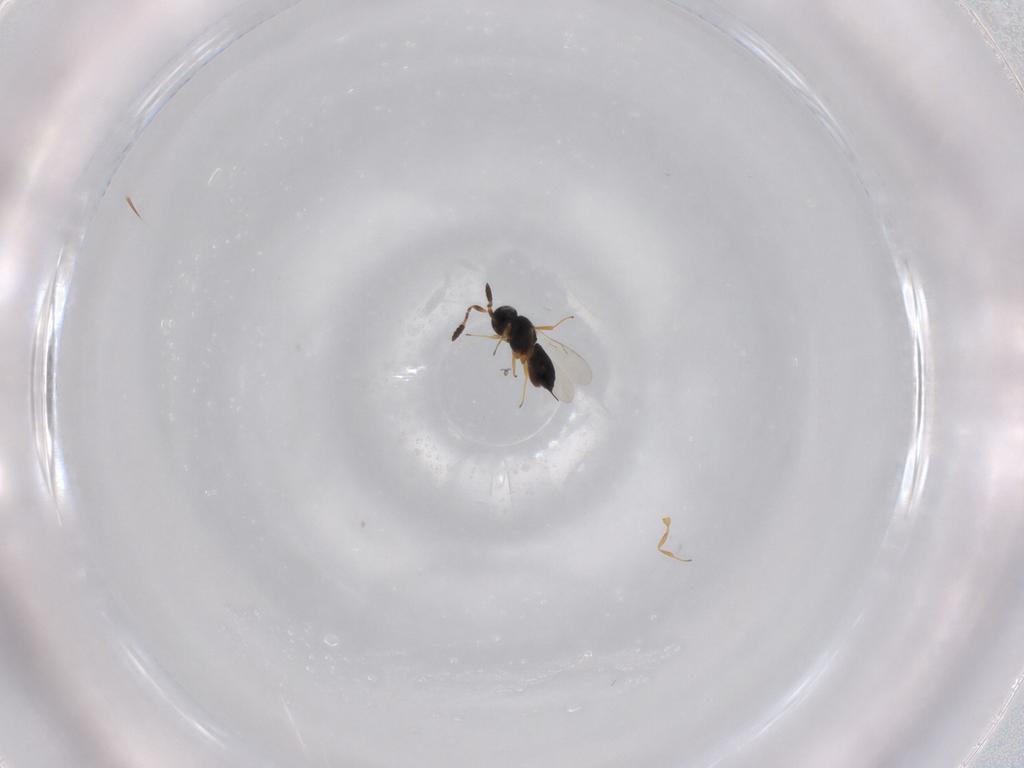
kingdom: Animalia
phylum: Arthropoda
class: Insecta
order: Hymenoptera
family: Scelionidae
